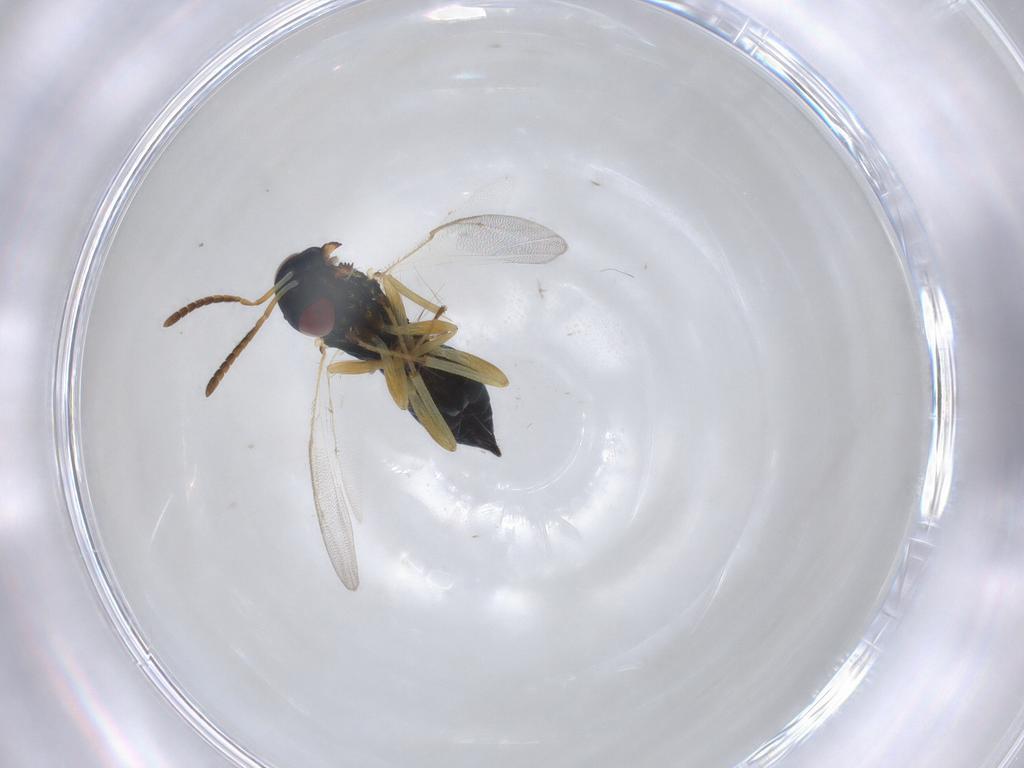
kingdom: Animalia
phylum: Arthropoda
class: Insecta
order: Hymenoptera
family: Pteromalidae
